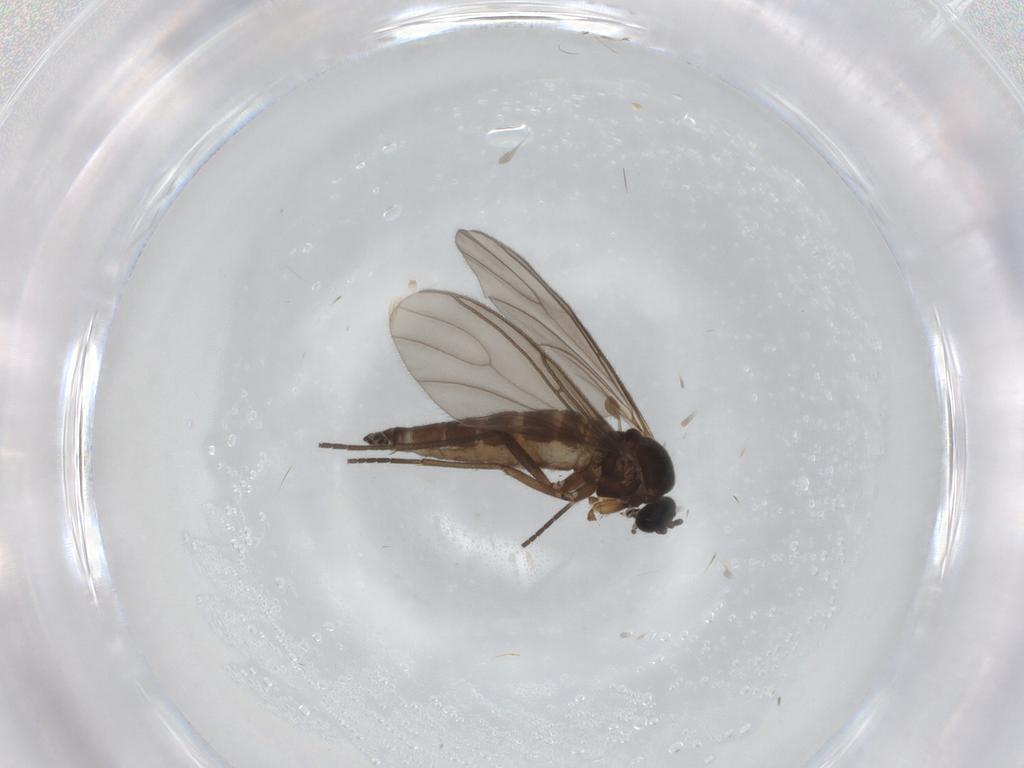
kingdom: Animalia
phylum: Arthropoda
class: Insecta
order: Diptera
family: Sciaridae
